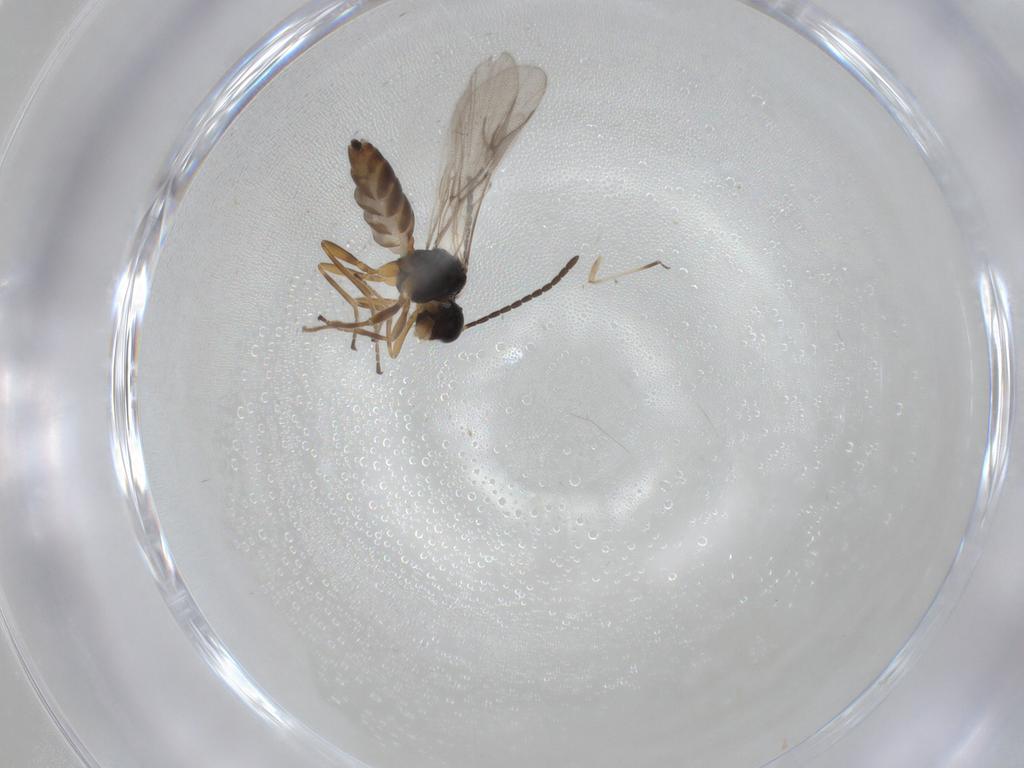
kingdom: Animalia
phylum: Arthropoda
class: Insecta
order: Hymenoptera
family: Braconidae
